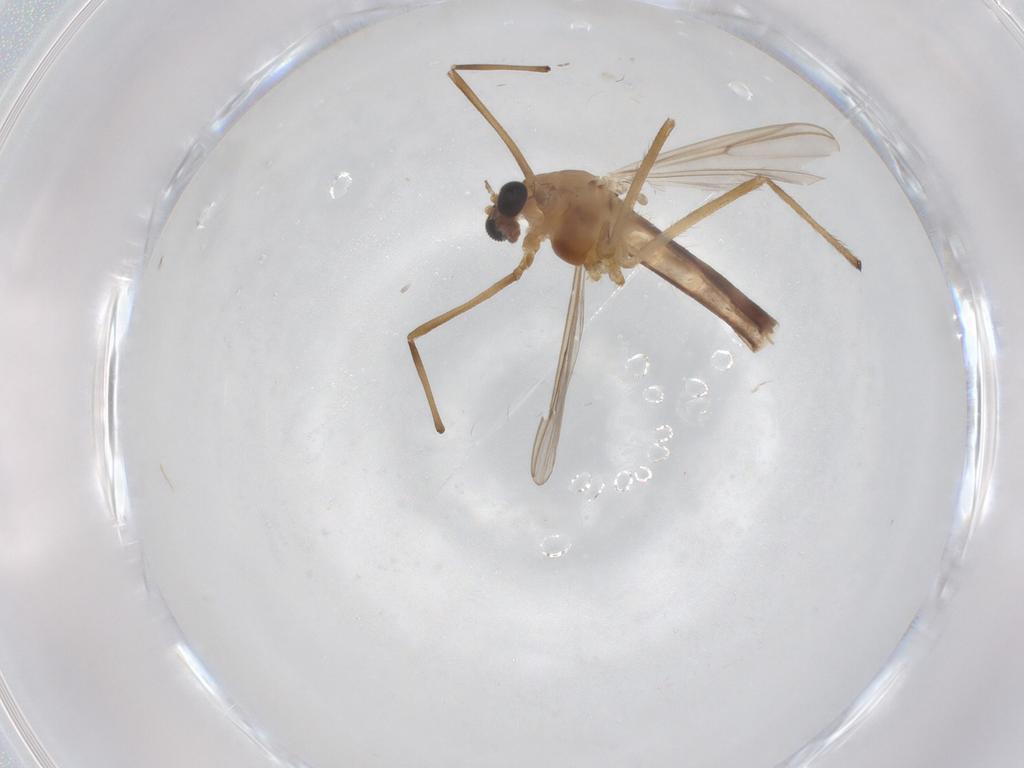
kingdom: Animalia
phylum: Arthropoda
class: Insecta
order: Diptera
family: Chironomidae
